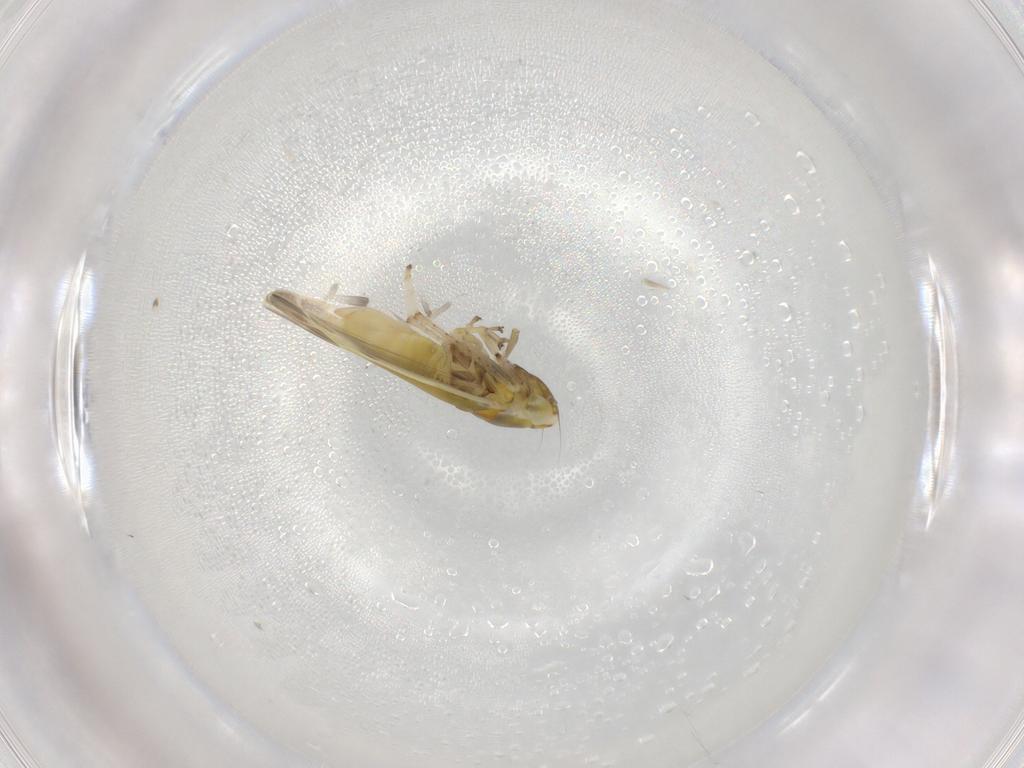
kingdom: Animalia
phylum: Arthropoda
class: Insecta
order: Hemiptera
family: Cicadellidae
